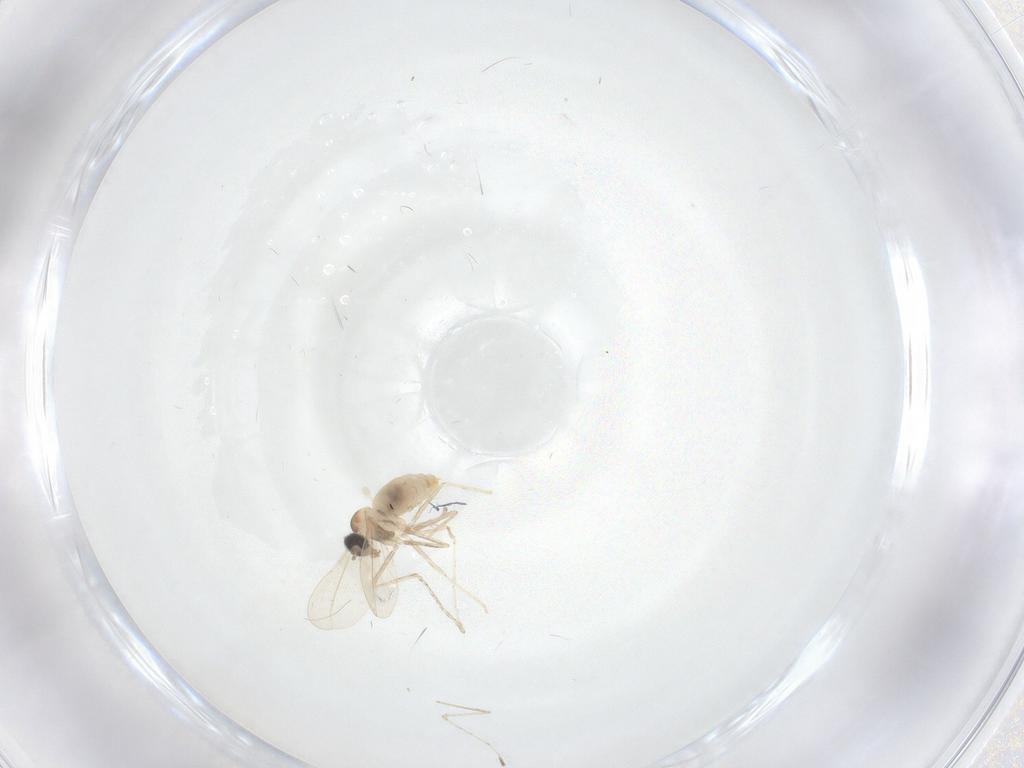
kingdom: Animalia
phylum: Arthropoda
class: Insecta
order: Diptera
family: Cecidomyiidae
